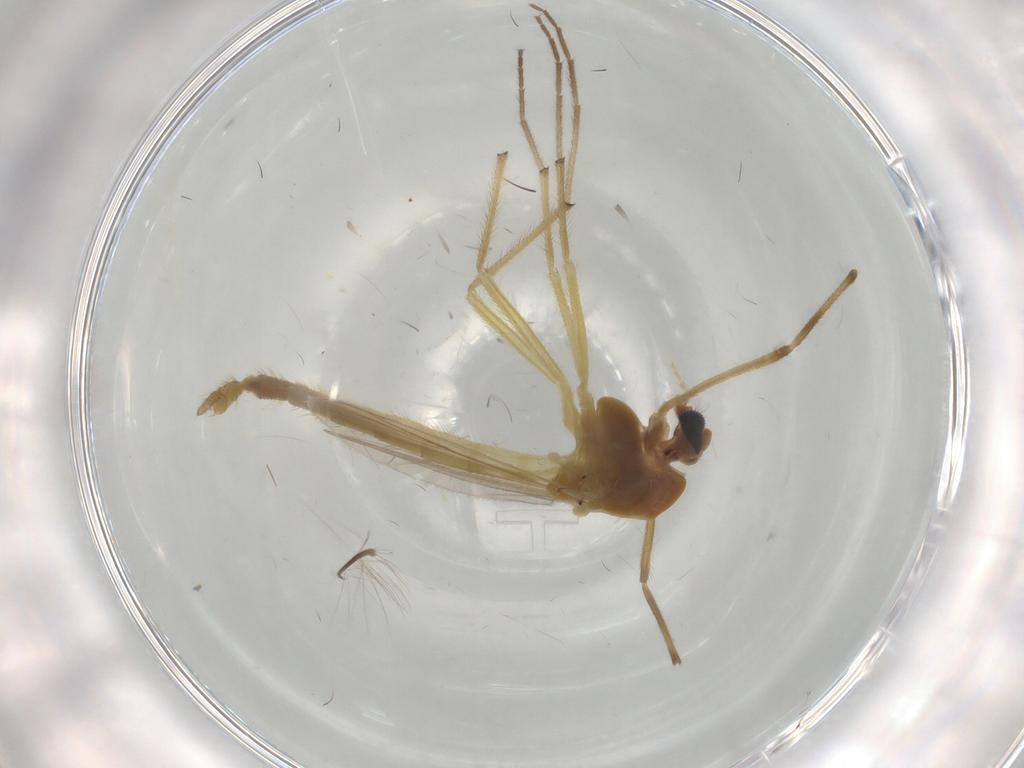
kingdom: Animalia
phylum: Arthropoda
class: Insecta
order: Diptera
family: Chironomidae
